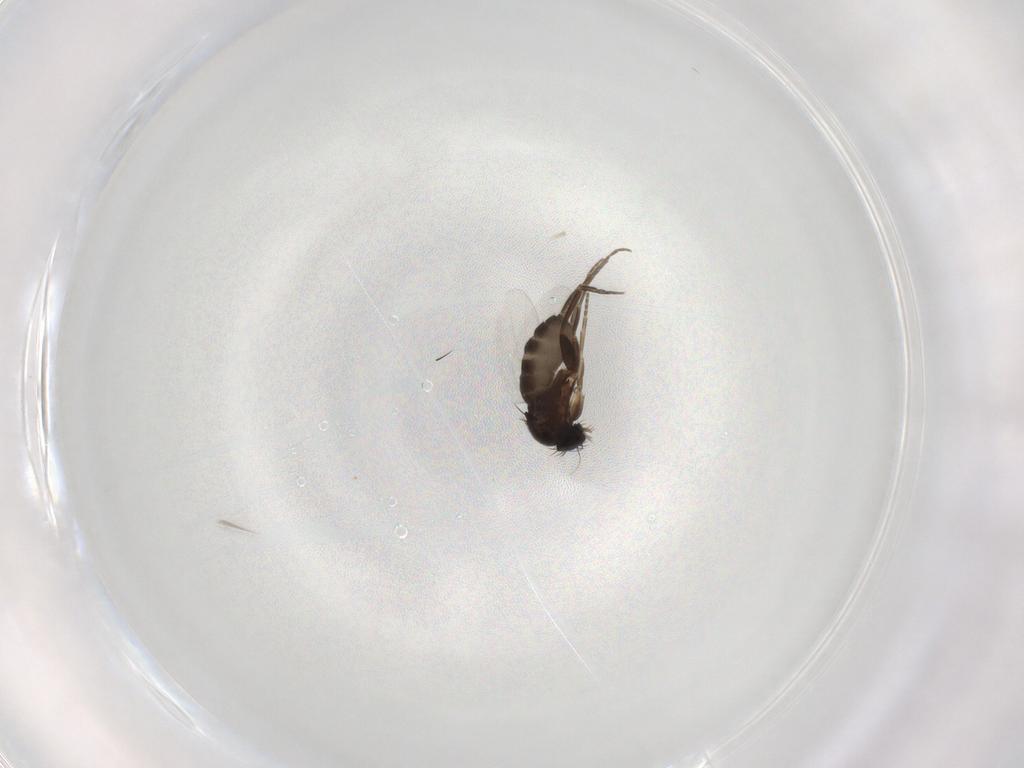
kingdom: Animalia
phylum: Arthropoda
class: Insecta
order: Diptera
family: Phoridae
